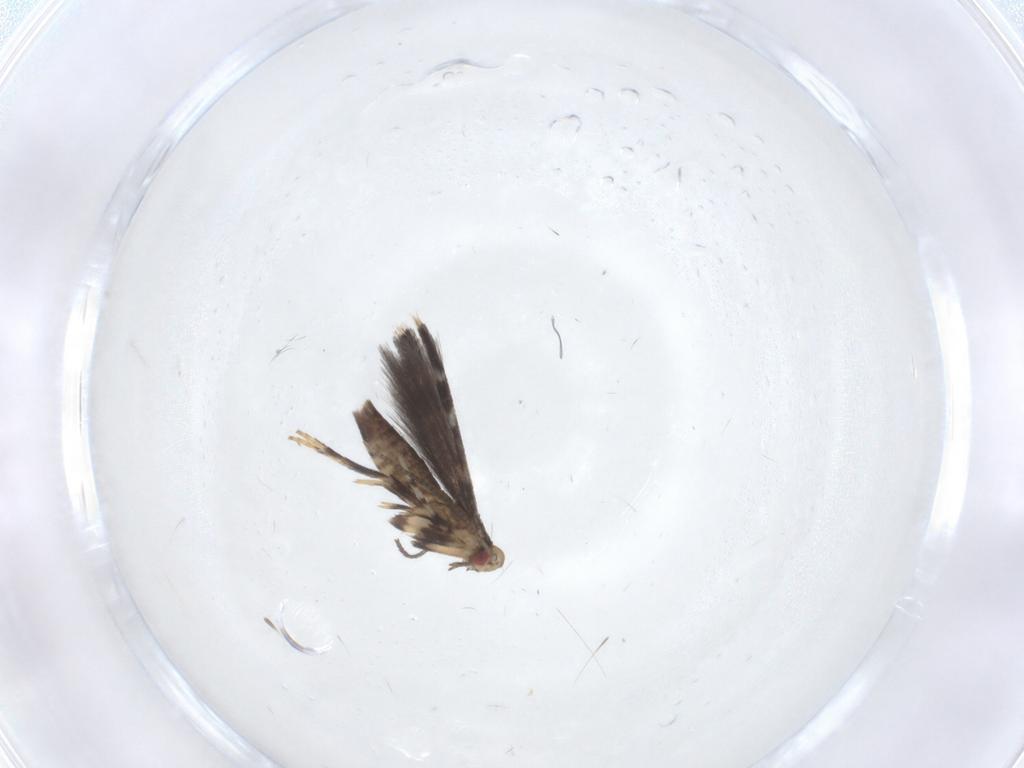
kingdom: Animalia
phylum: Arthropoda
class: Insecta
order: Lepidoptera
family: Gracillariidae
